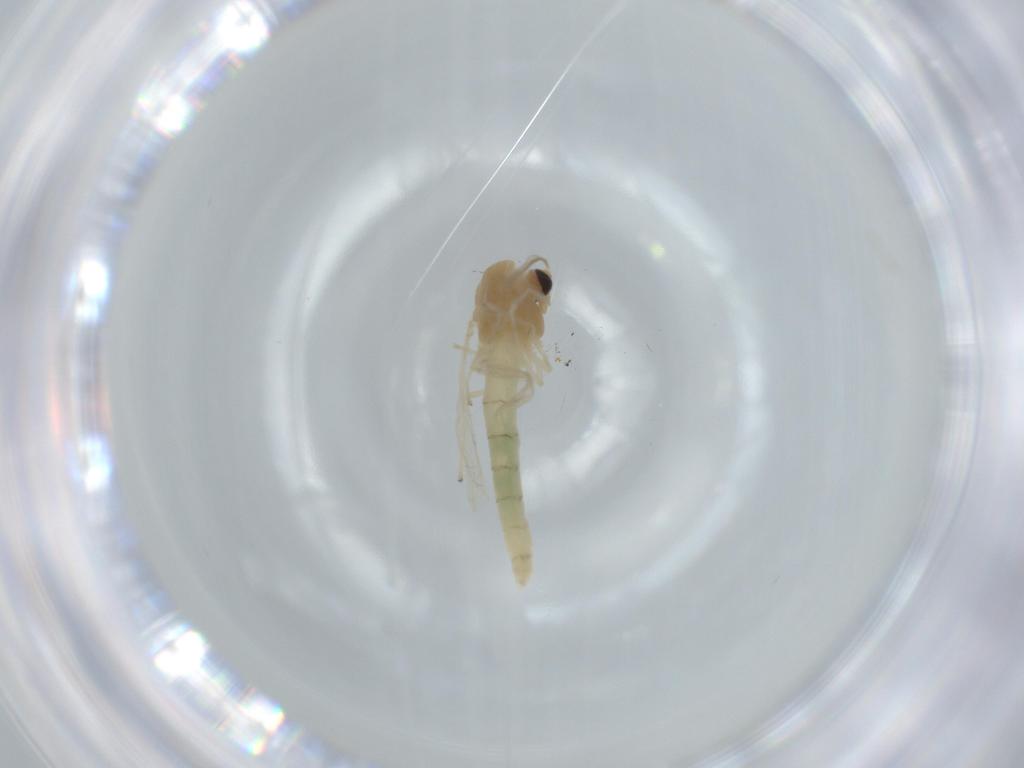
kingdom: Animalia
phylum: Arthropoda
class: Insecta
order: Diptera
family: Chironomidae
